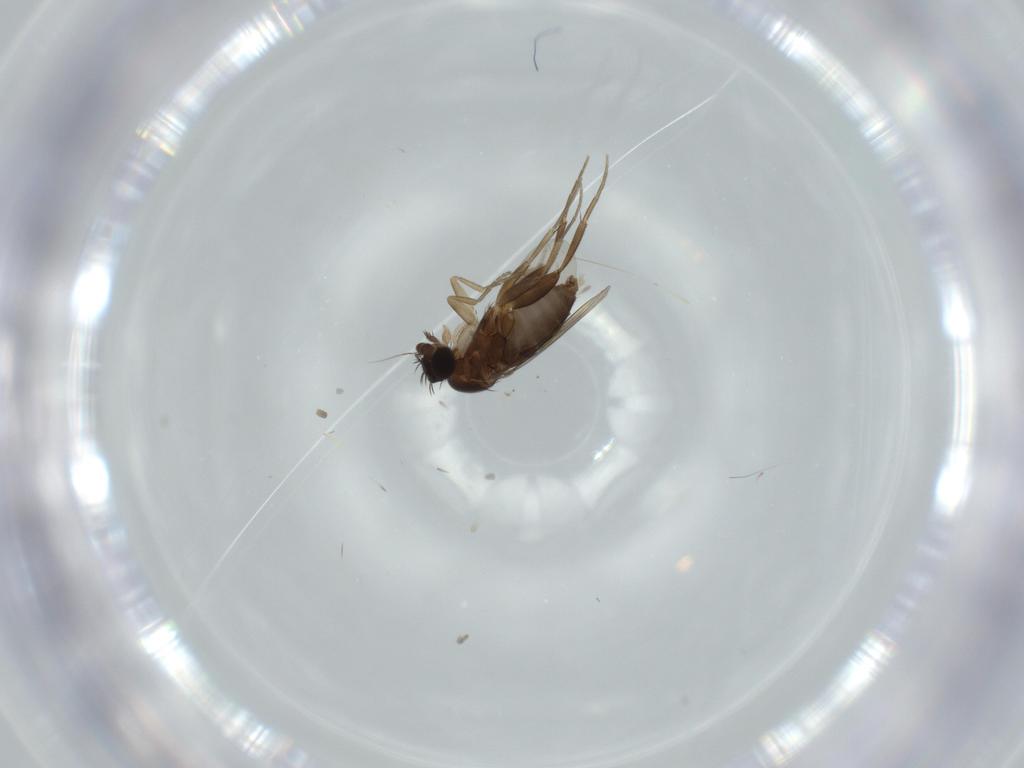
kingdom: Animalia
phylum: Arthropoda
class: Insecta
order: Diptera
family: Phoridae
